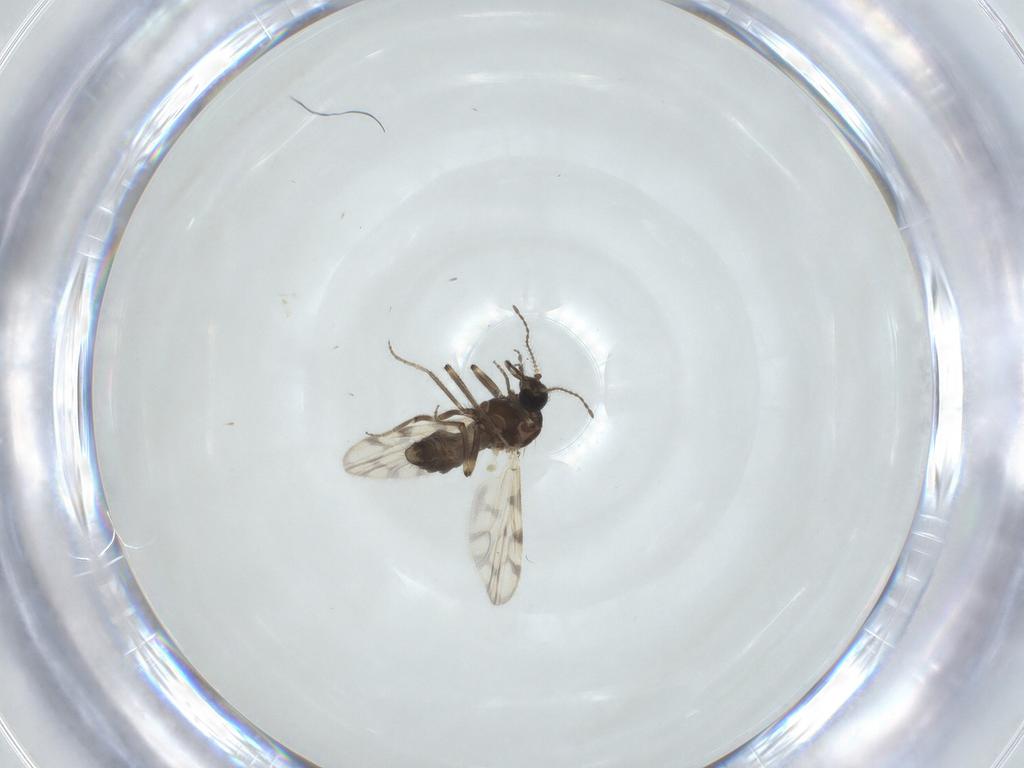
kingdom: Animalia
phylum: Arthropoda
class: Insecta
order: Diptera
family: Ceratopogonidae
